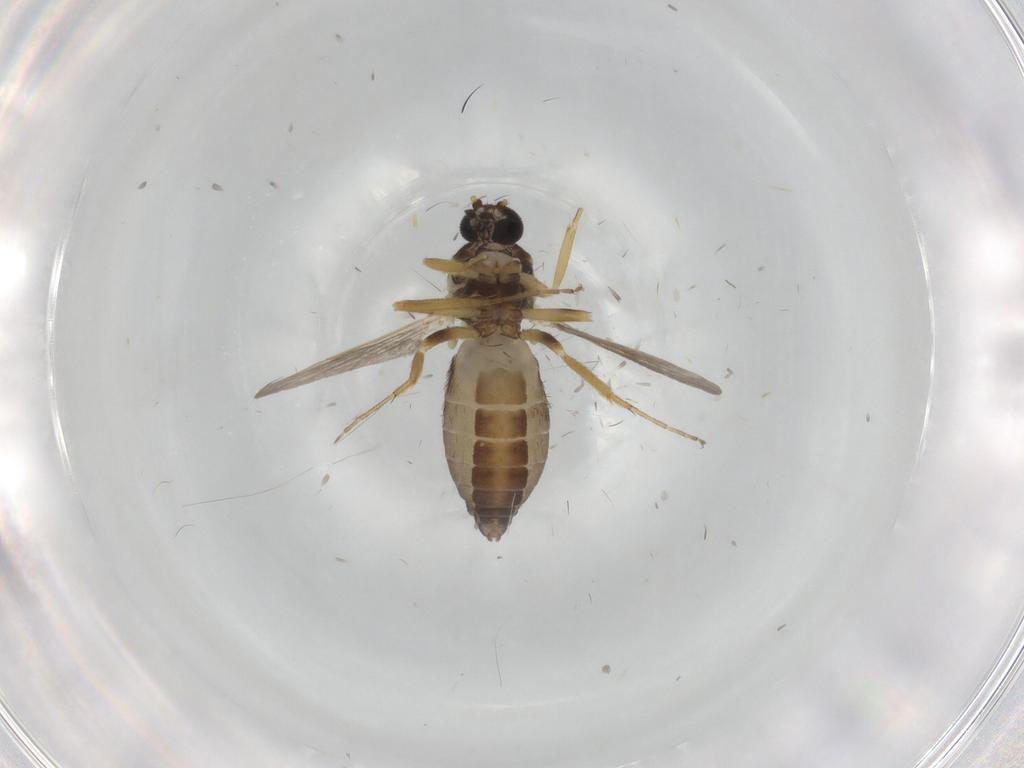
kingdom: Animalia
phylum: Arthropoda
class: Insecta
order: Diptera
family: Ceratopogonidae
